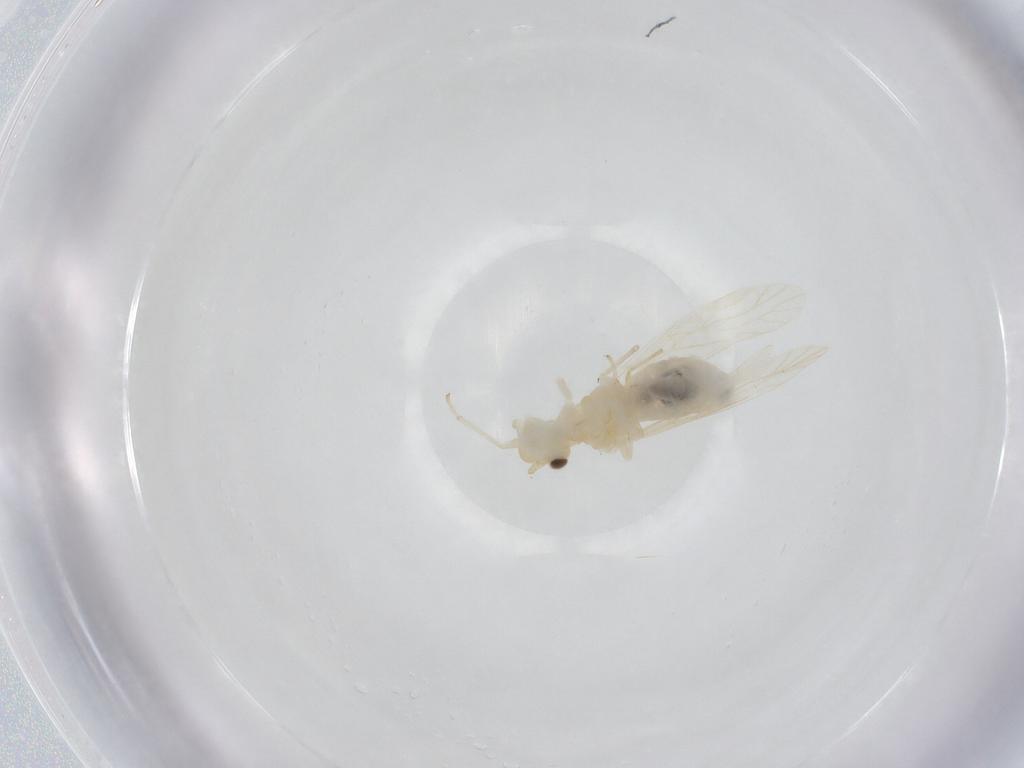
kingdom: Animalia
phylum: Arthropoda
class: Insecta
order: Psocodea
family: Caeciliusidae
